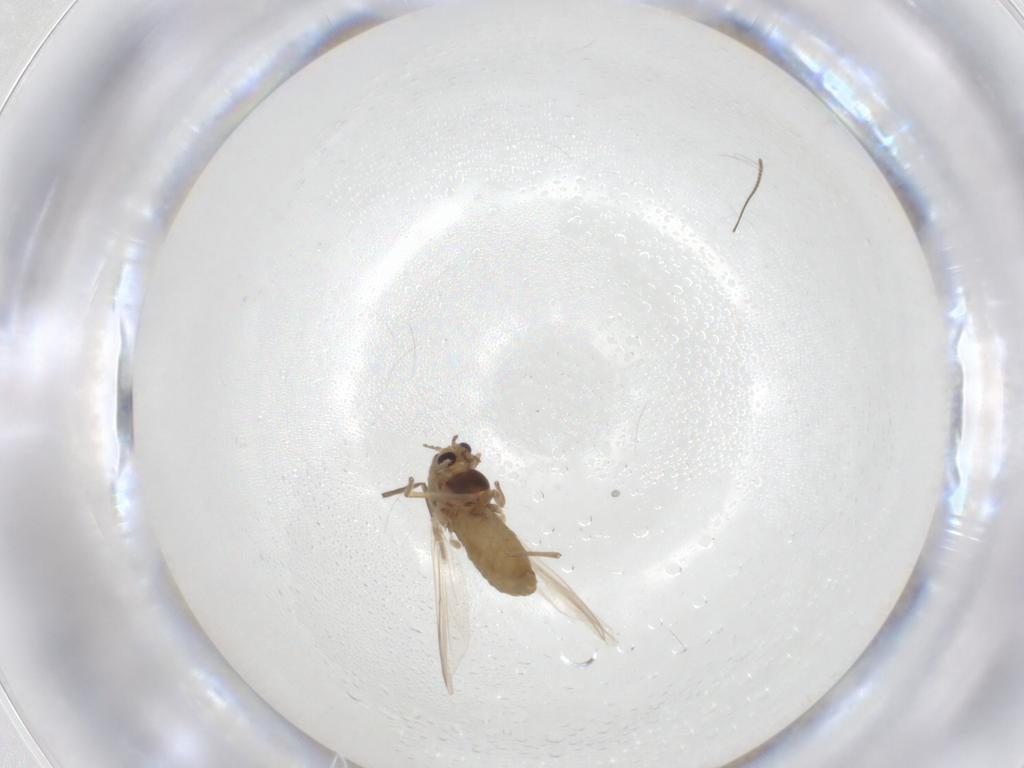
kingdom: Animalia
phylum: Arthropoda
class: Insecta
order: Diptera
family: Chironomidae
